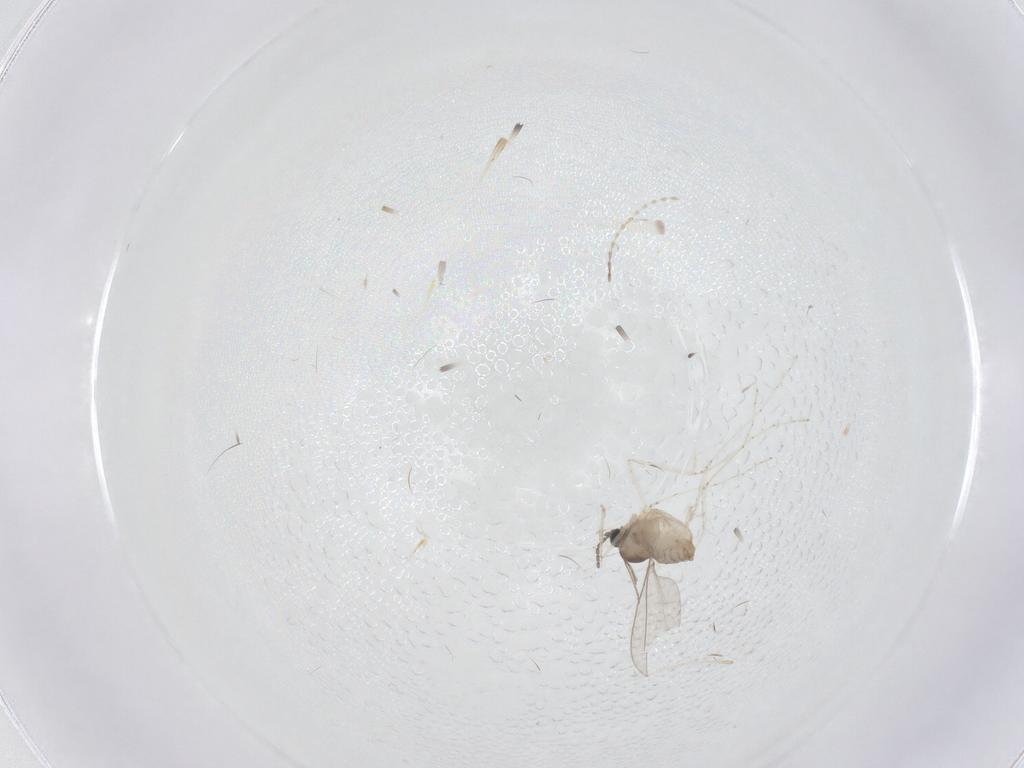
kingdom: Animalia
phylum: Arthropoda
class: Insecta
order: Diptera
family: Cecidomyiidae
